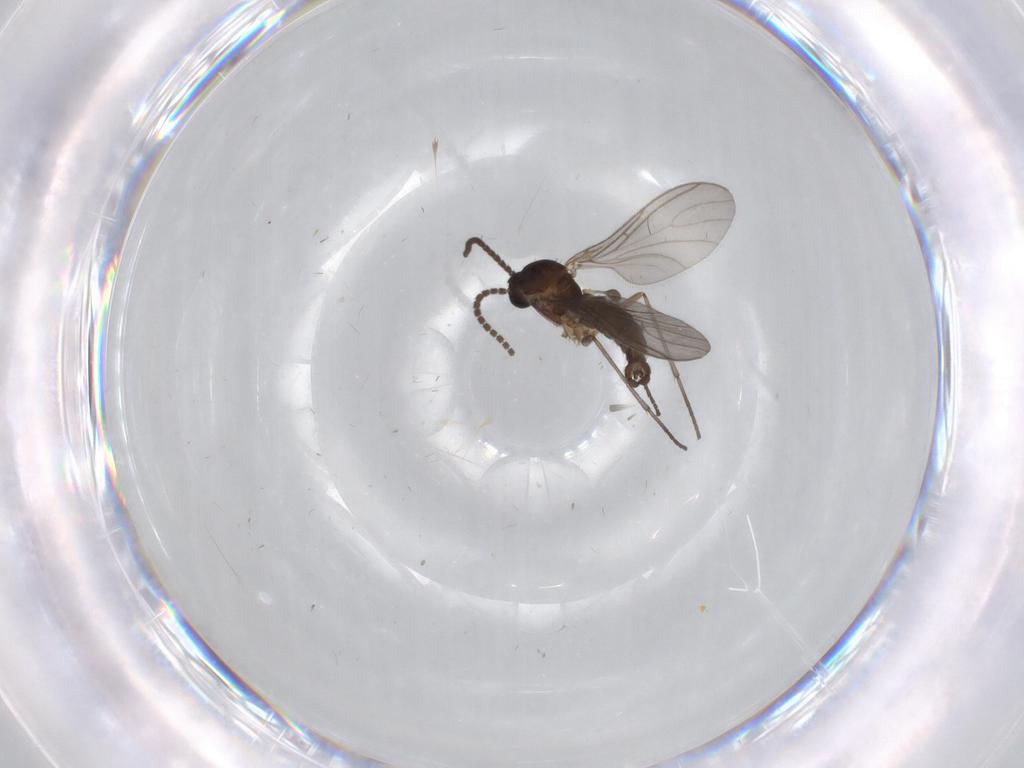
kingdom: Animalia
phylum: Arthropoda
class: Insecta
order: Diptera
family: Sciaridae
